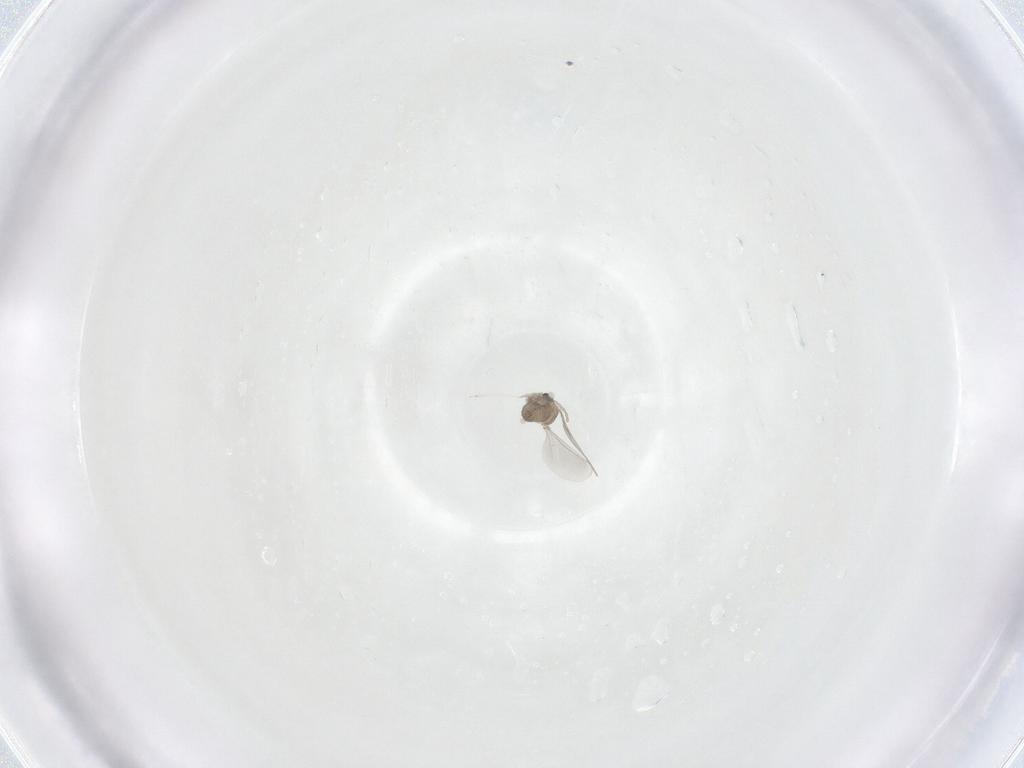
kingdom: Animalia
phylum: Arthropoda
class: Insecta
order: Diptera
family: Cecidomyiidae
